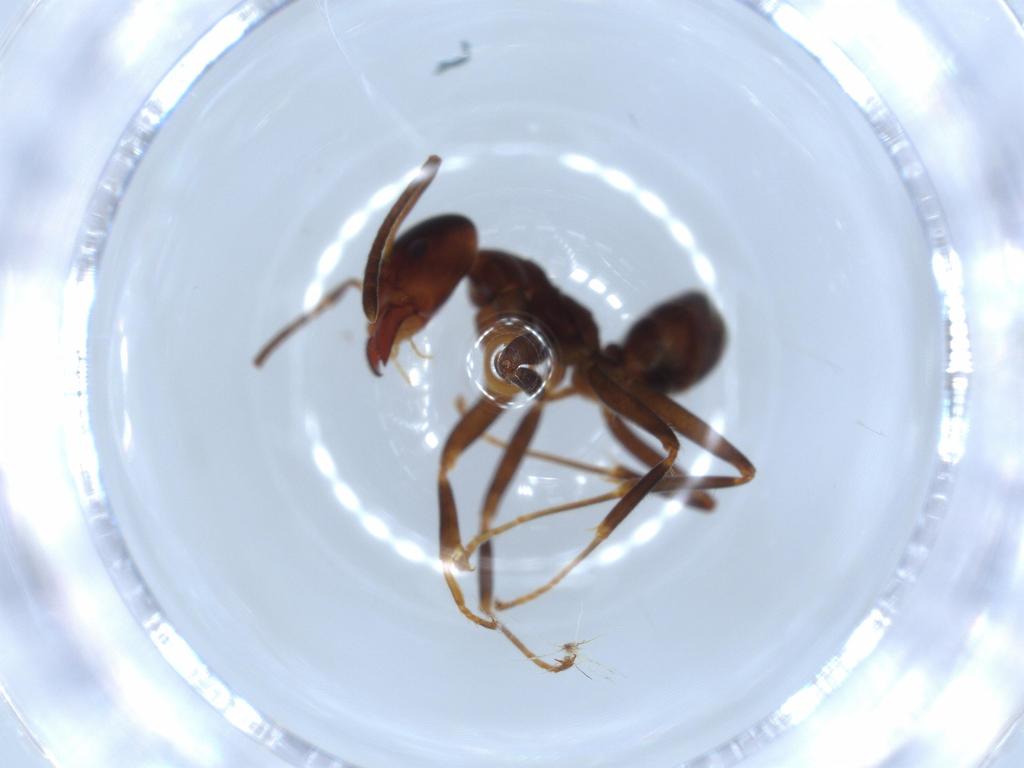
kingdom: Animalia
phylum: Arthropoda
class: Insecta
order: Hymenoptera
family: Formicidae
